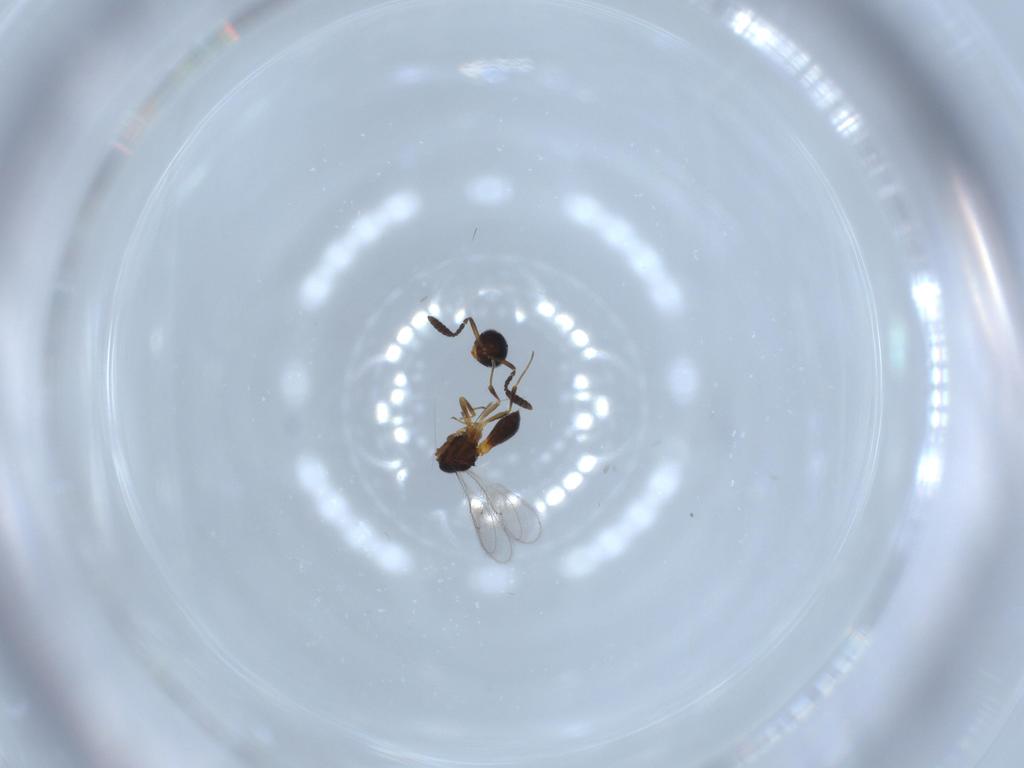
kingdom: Animalia
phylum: Arthropoda
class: Insecta
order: Hymenoptera
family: Scelionidae
